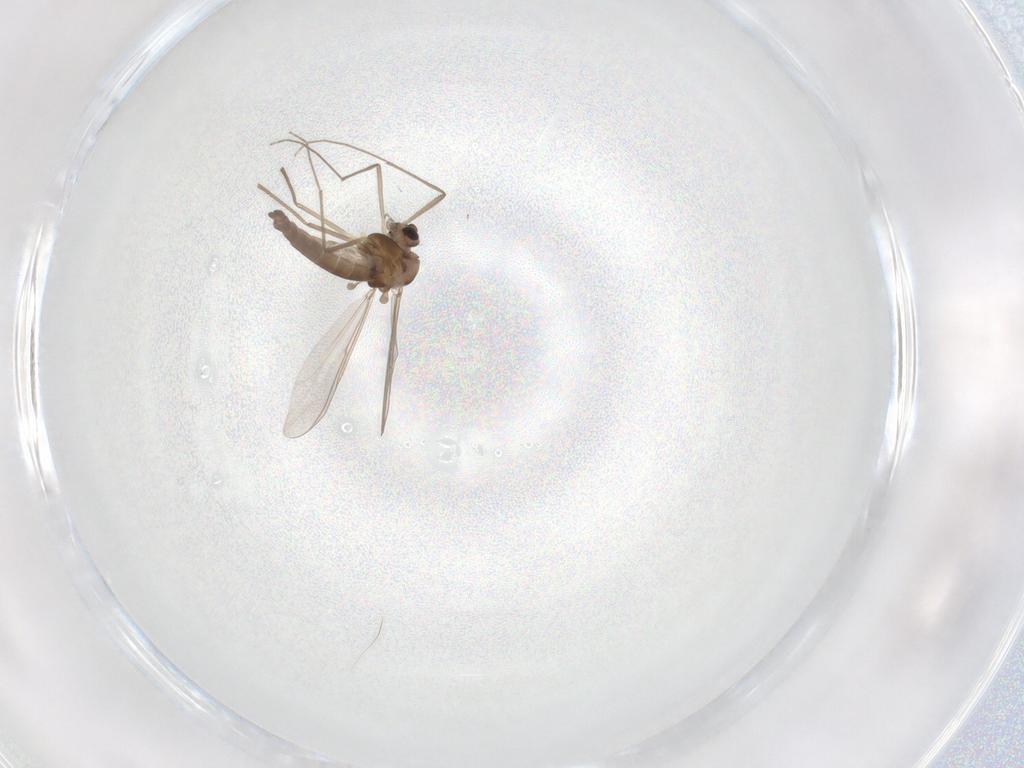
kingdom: Animalia
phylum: Arthropoda
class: Insecta
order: Diptera
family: Chironomidae
